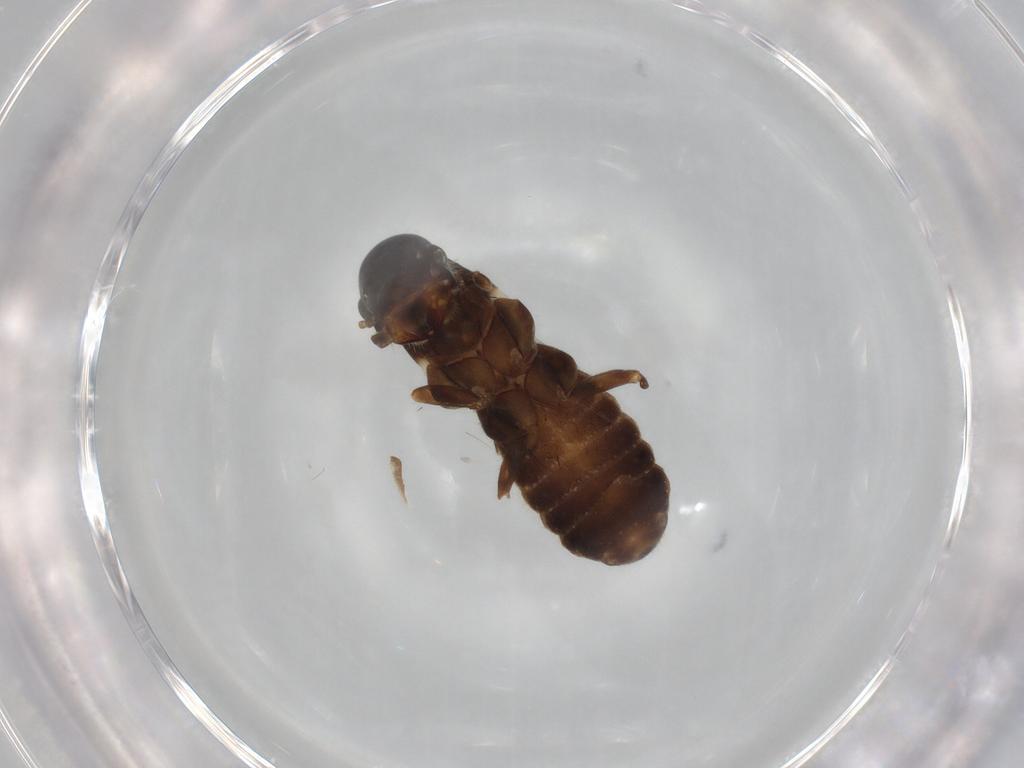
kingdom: Animalia
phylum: Arthropoda
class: Insecta
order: Blattodea
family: Termitidae
